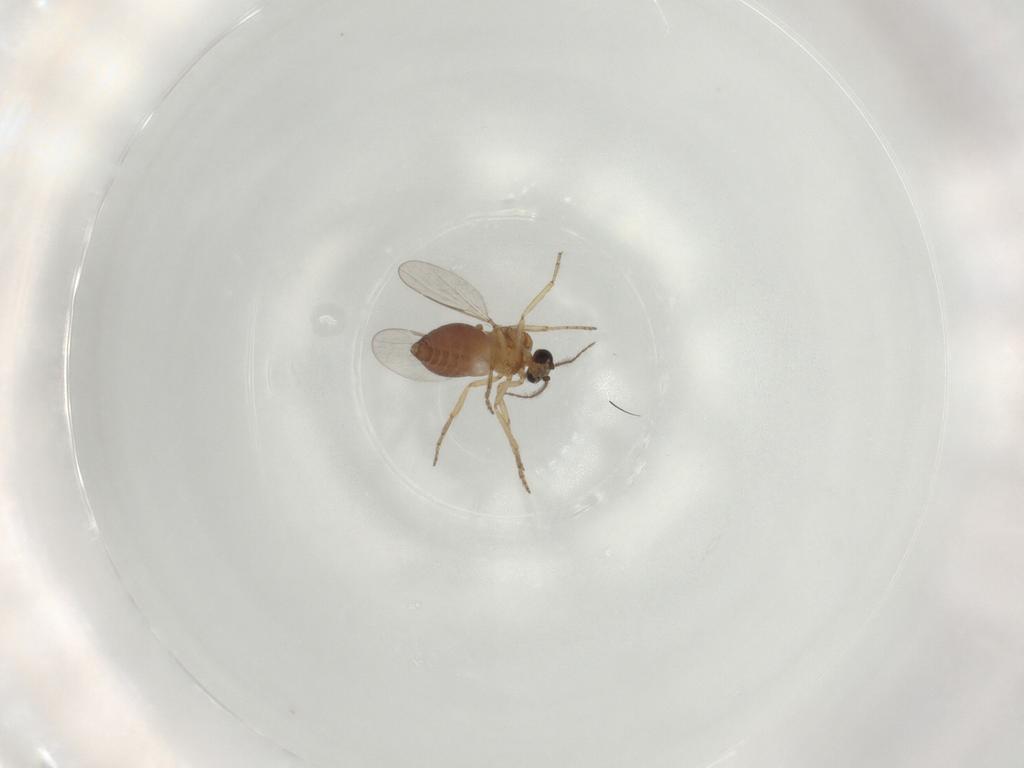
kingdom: Animalia
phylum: Arthropoda
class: Insecta
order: Diptera
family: Ceratopogonidae
